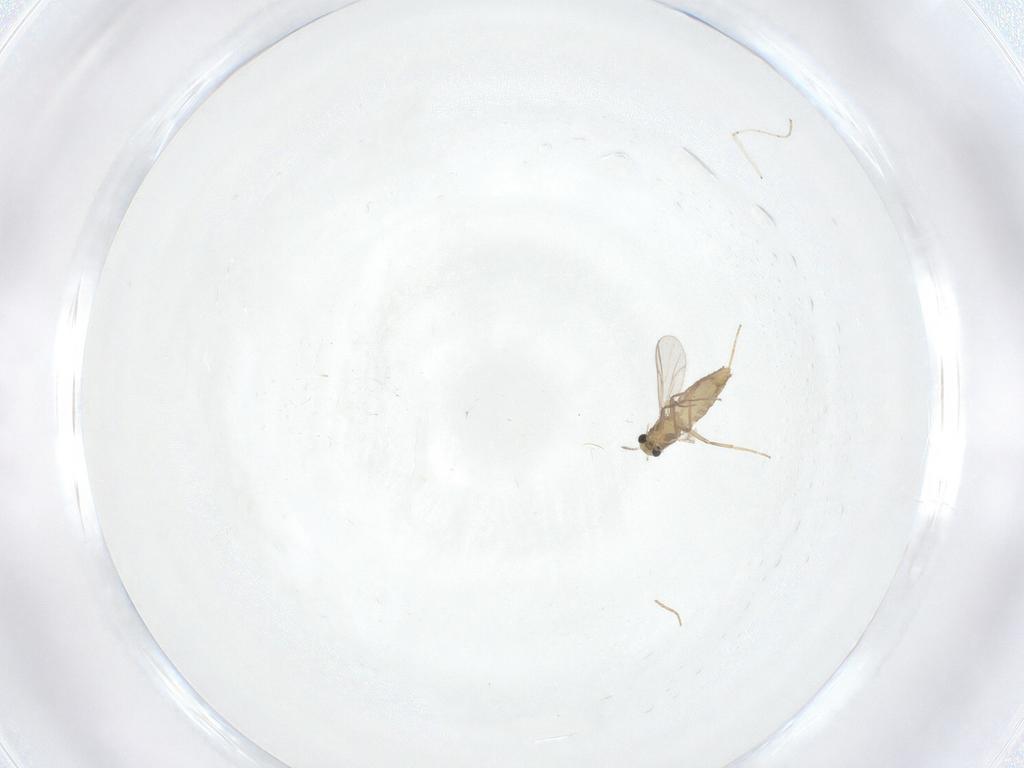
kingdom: Animalia
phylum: Arthropoda
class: Insecta
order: Diptera
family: Chironomidae
